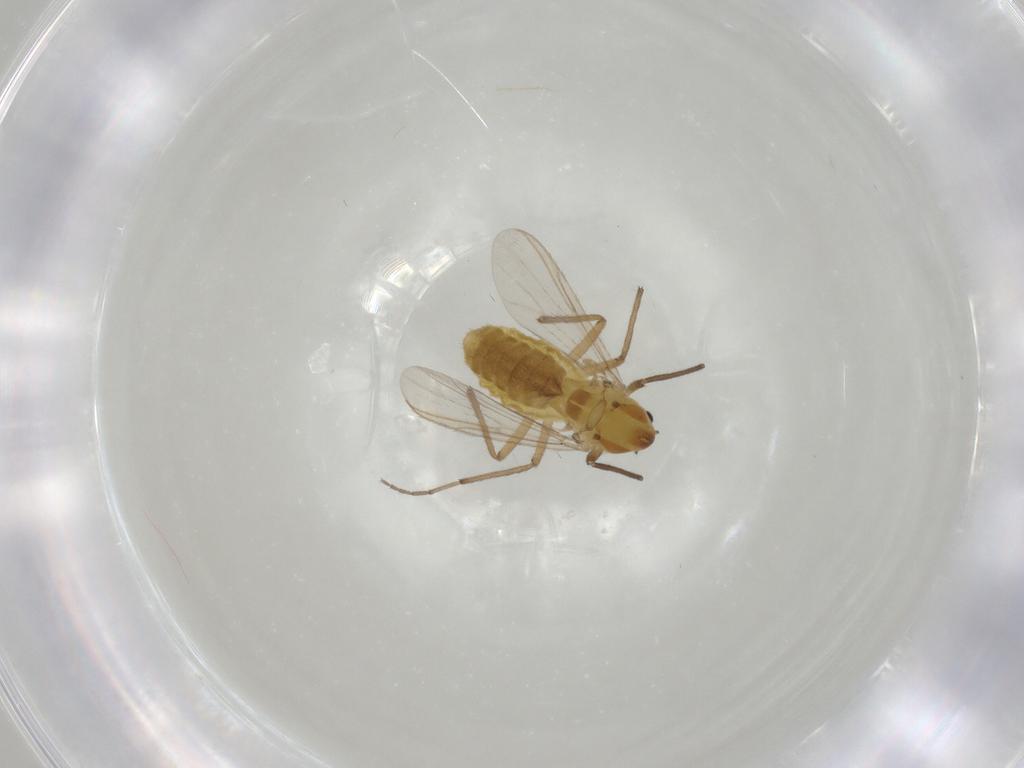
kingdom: Animalia
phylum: Arthropoda
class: Insecta
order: Diptera
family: Chironomidae
